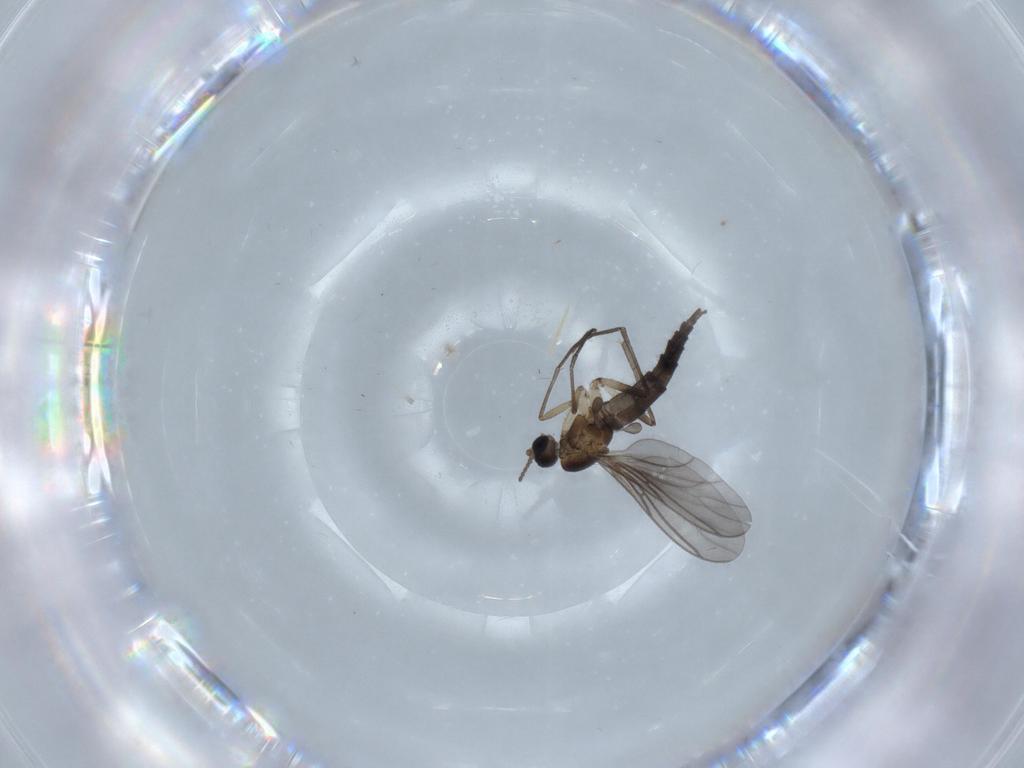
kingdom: Animalia
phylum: Arthropoda
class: Insecta
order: Diptera
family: Sciaridae
